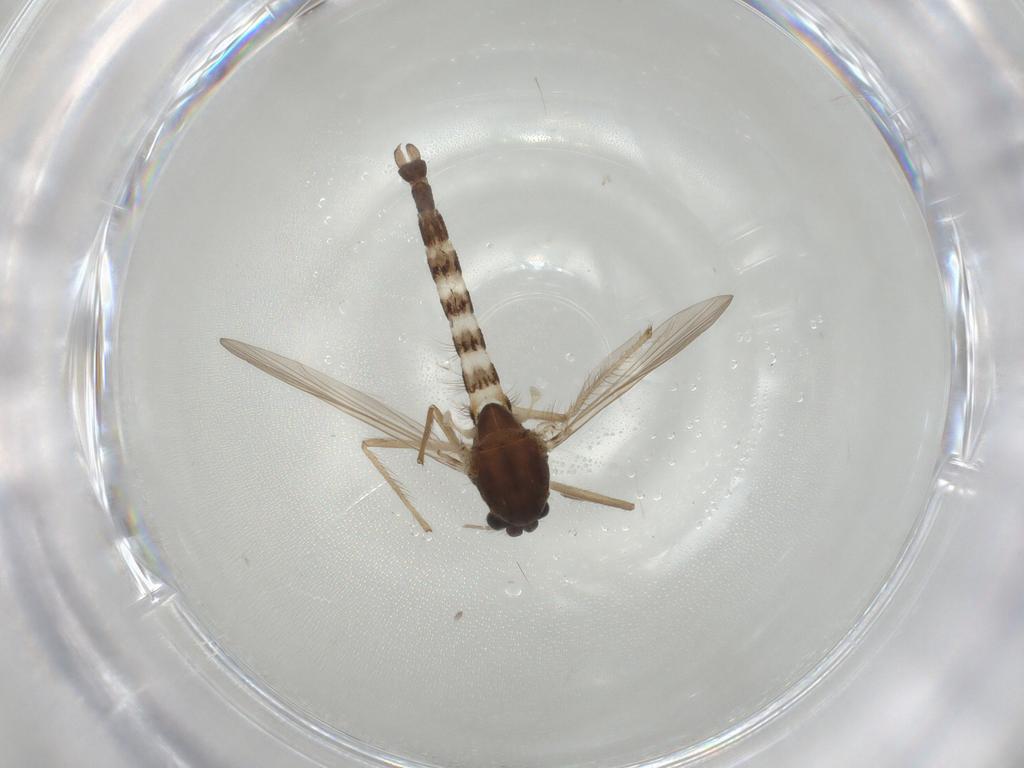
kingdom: Animalia
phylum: Arthropoda
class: Insecta
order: Diptera
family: Chironomidae
